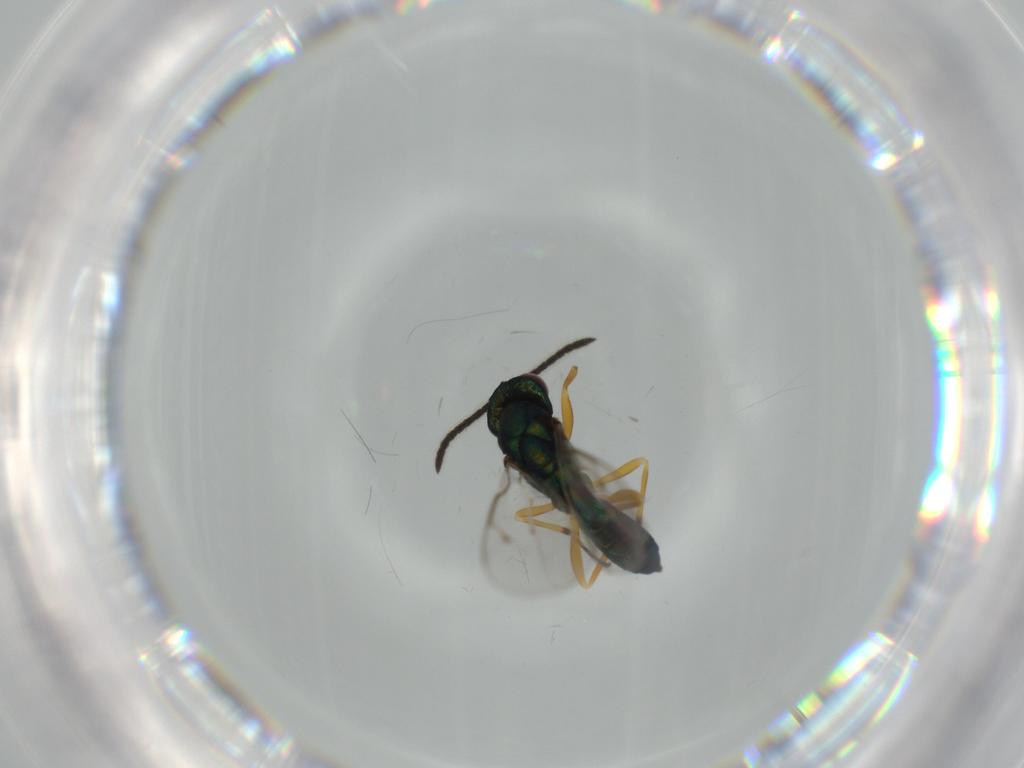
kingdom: Animalia
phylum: Arthropoda
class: Insecta
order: Hymenoptera
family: Pteromalidae
